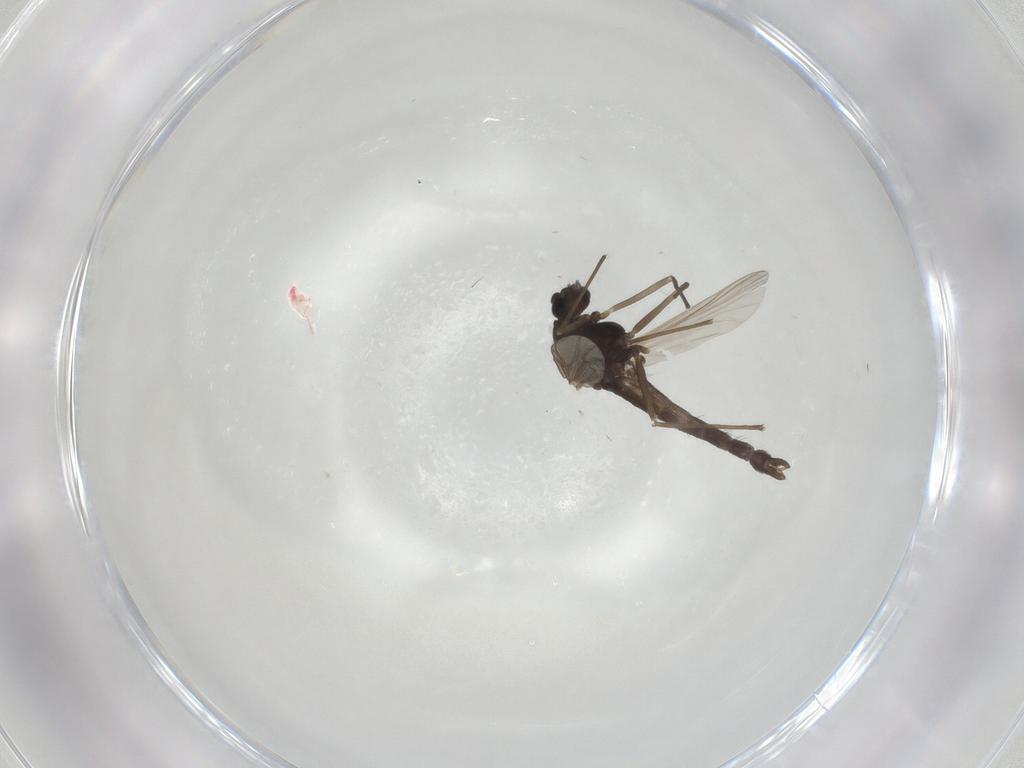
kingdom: Animalia
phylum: Arthropoda
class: Insecta
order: Diptera
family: Chironomidae
